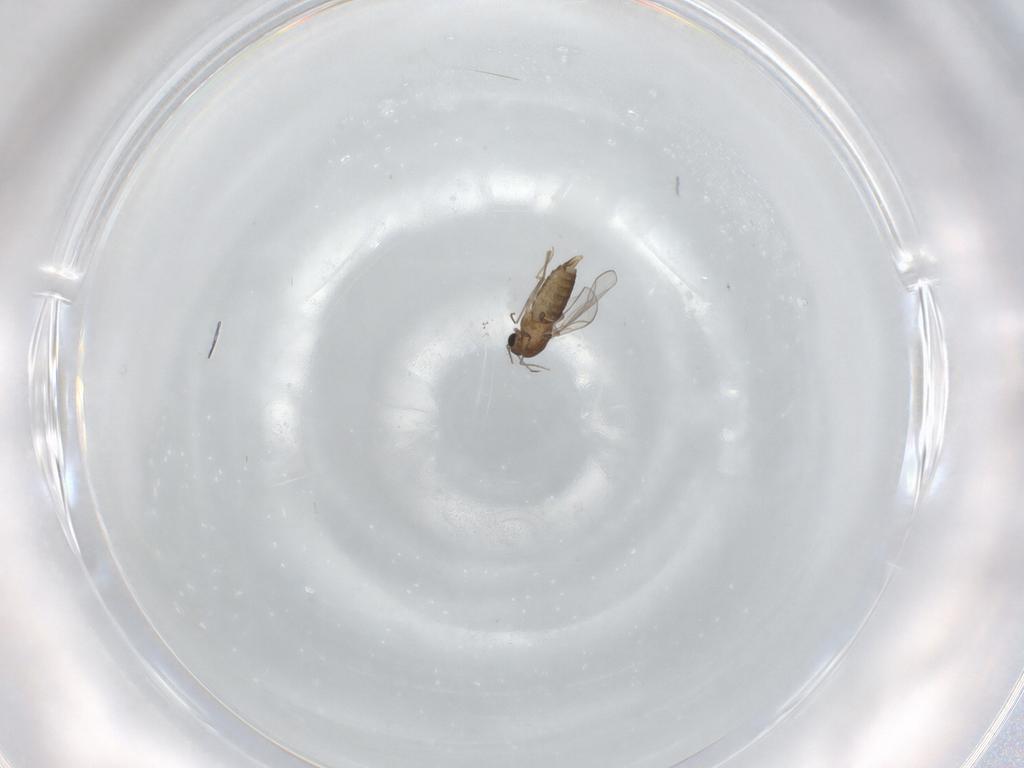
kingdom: Animalia
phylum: Arthropoda
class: Insecta
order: Diptera
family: Chironomidae
